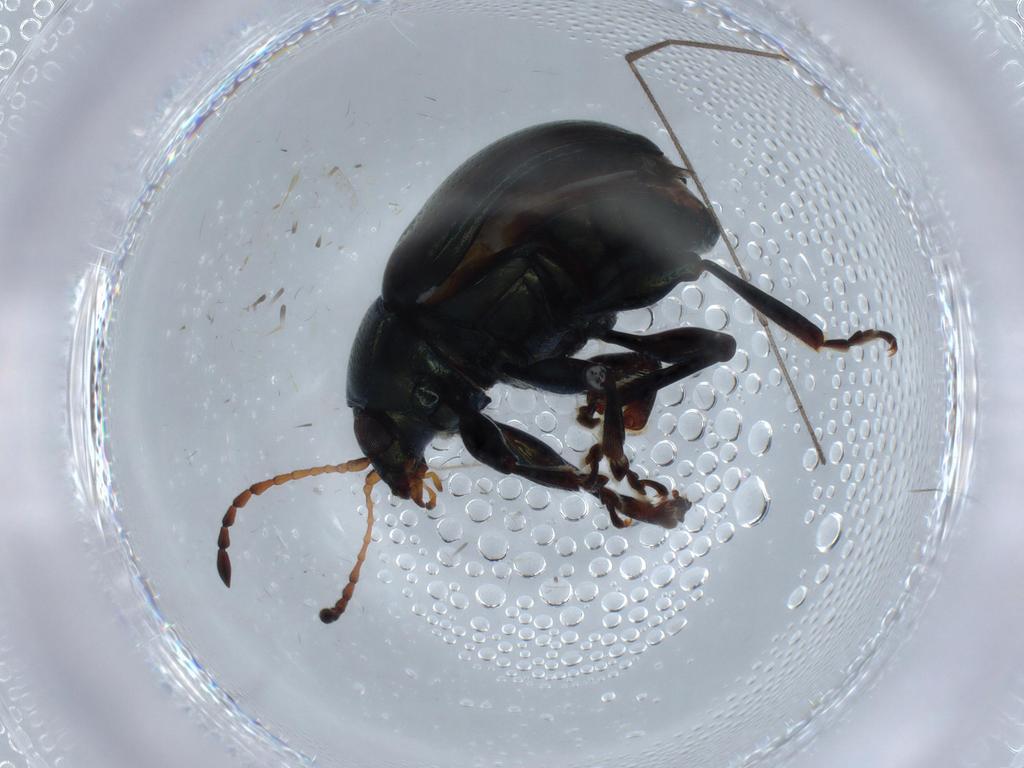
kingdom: Animalia
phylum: Arthropoda
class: Insecta
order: Coleoptera
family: Chrysomelidae
